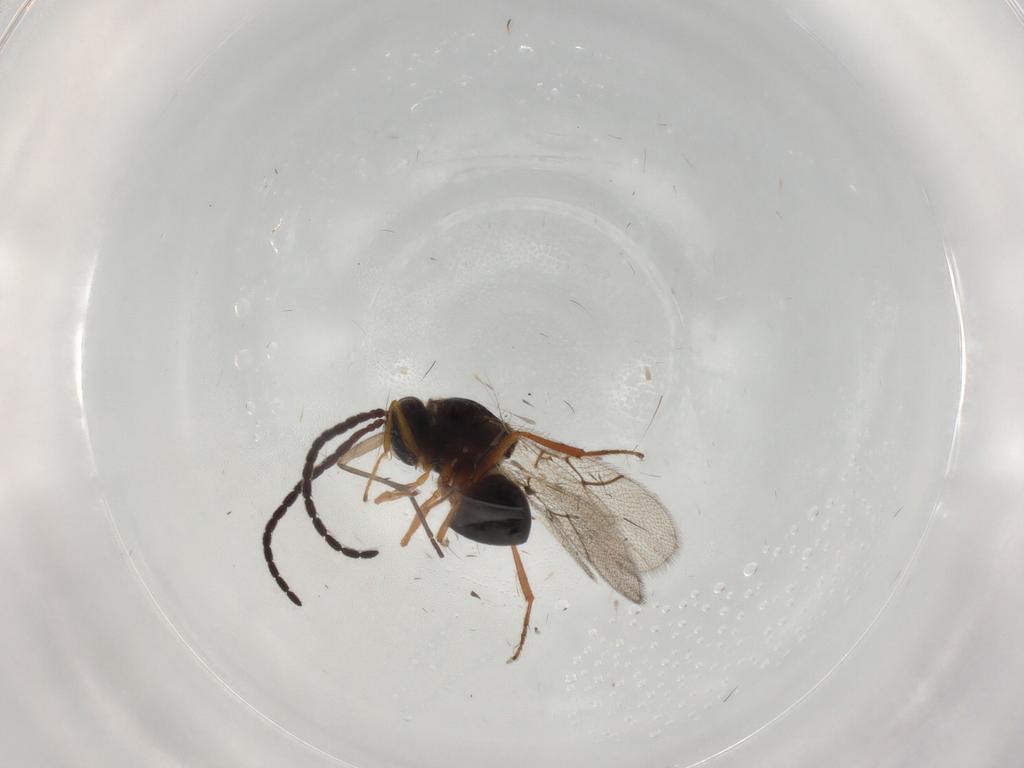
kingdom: Animalia
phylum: Arthropoda
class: Insecta
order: Hymenoptera
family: Figitidae
